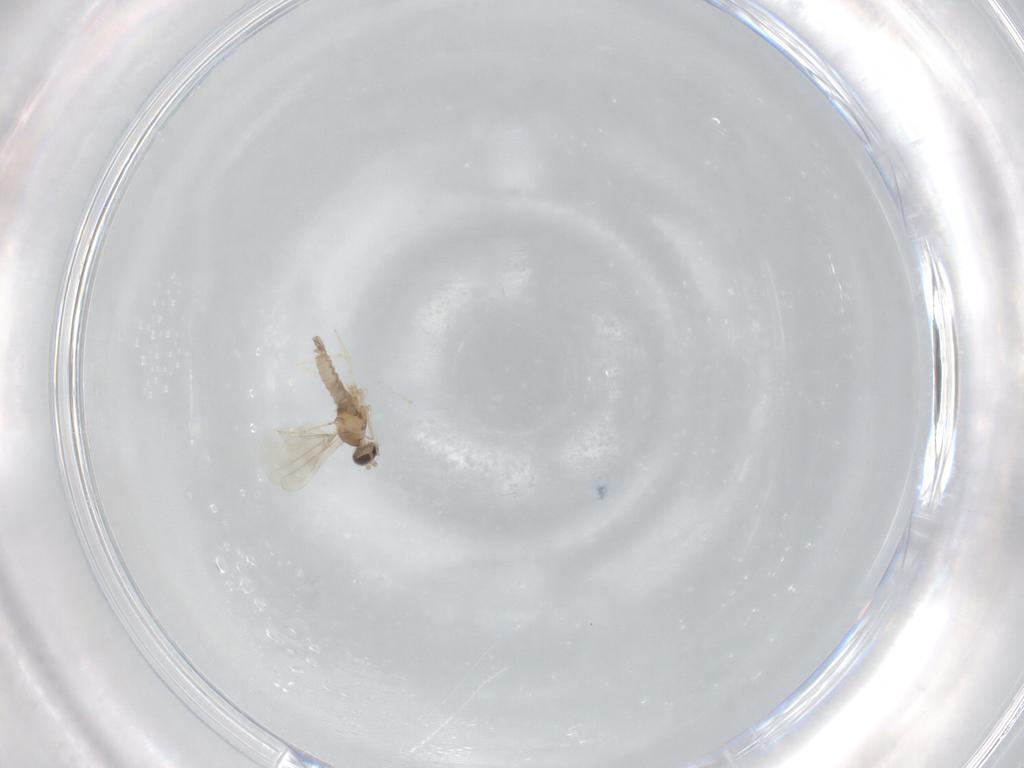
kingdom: Animalia
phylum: Arthropoda
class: Insecta
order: Diptera
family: Cecidomyiidae
